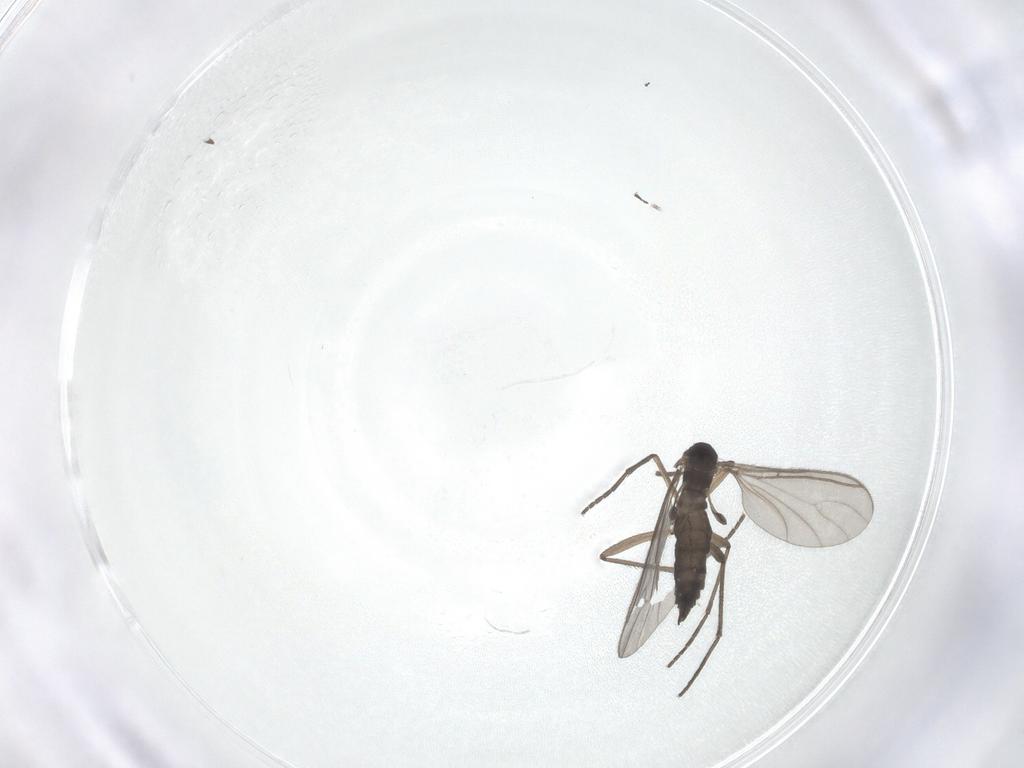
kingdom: Animalia
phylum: Arthropoda
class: Insecta
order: Diptera
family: Sciaridae
